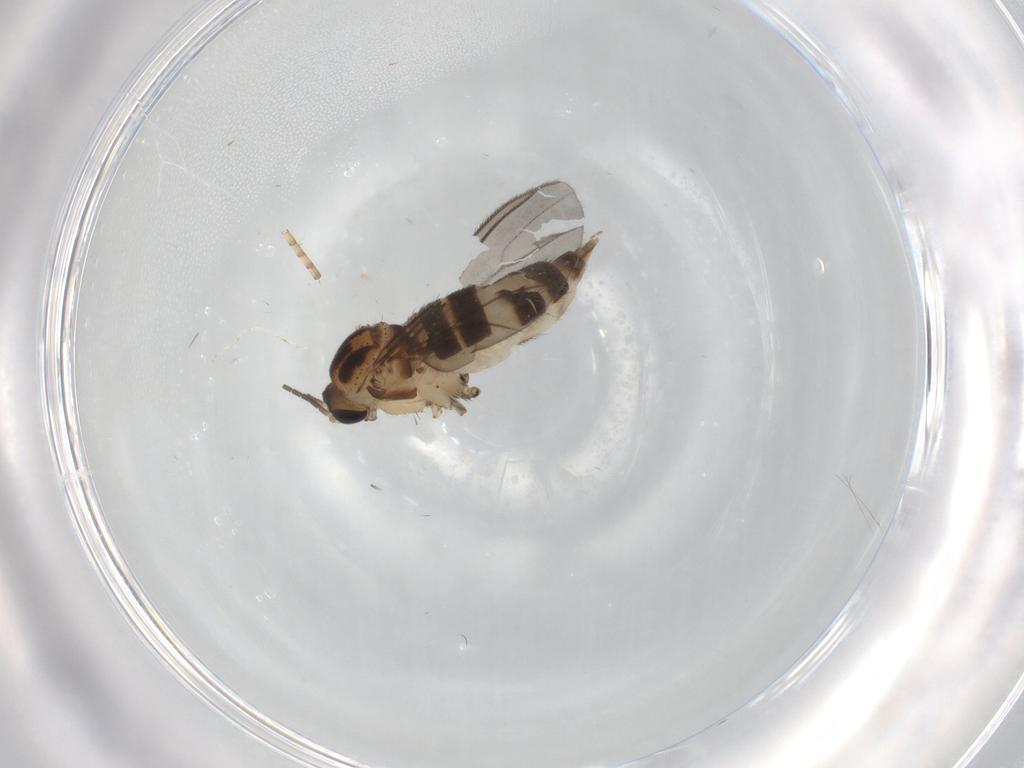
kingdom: Animalia
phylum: Arthropoda
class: Insecta
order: Diptera
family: Sciaridae
